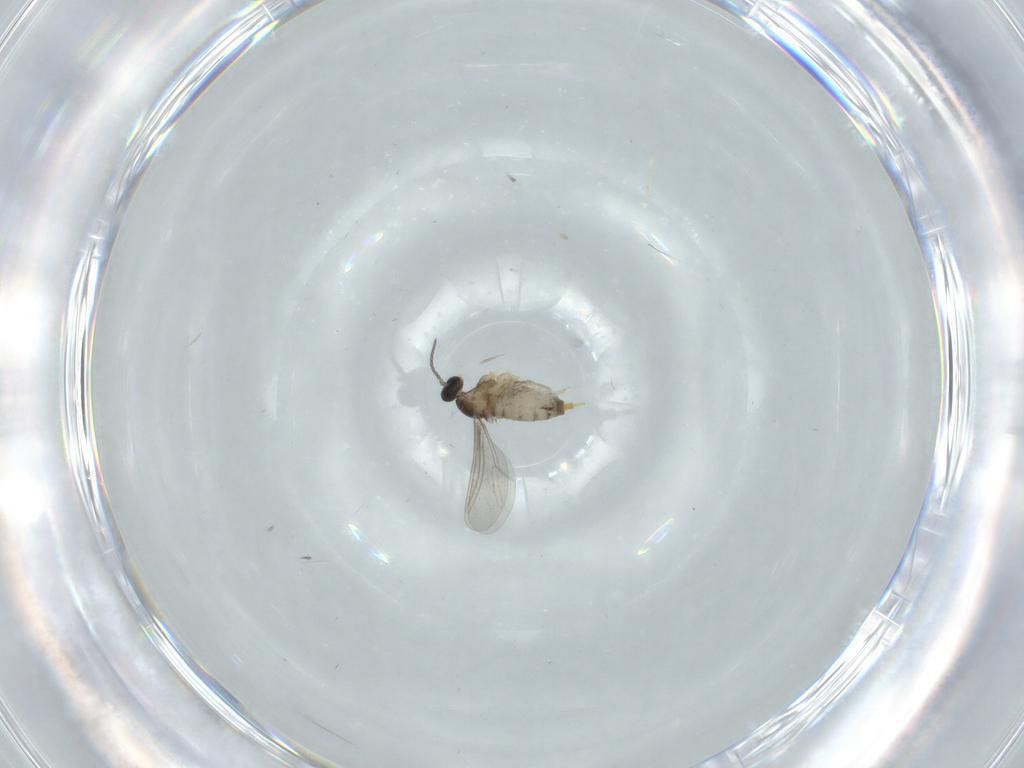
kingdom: Animalia
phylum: Arthropoda
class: Insecta
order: Diptera
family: Cecidomyiidae
